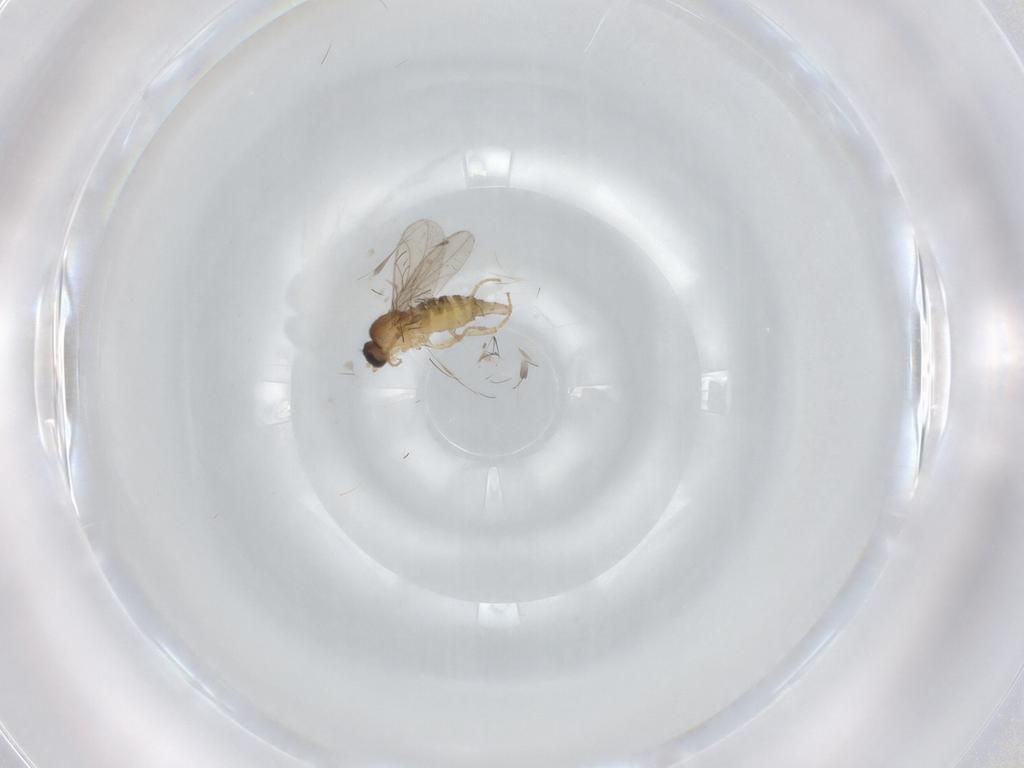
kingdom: Animalia
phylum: Arthropoda
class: Insecta
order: Diptera
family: Hybotidae
